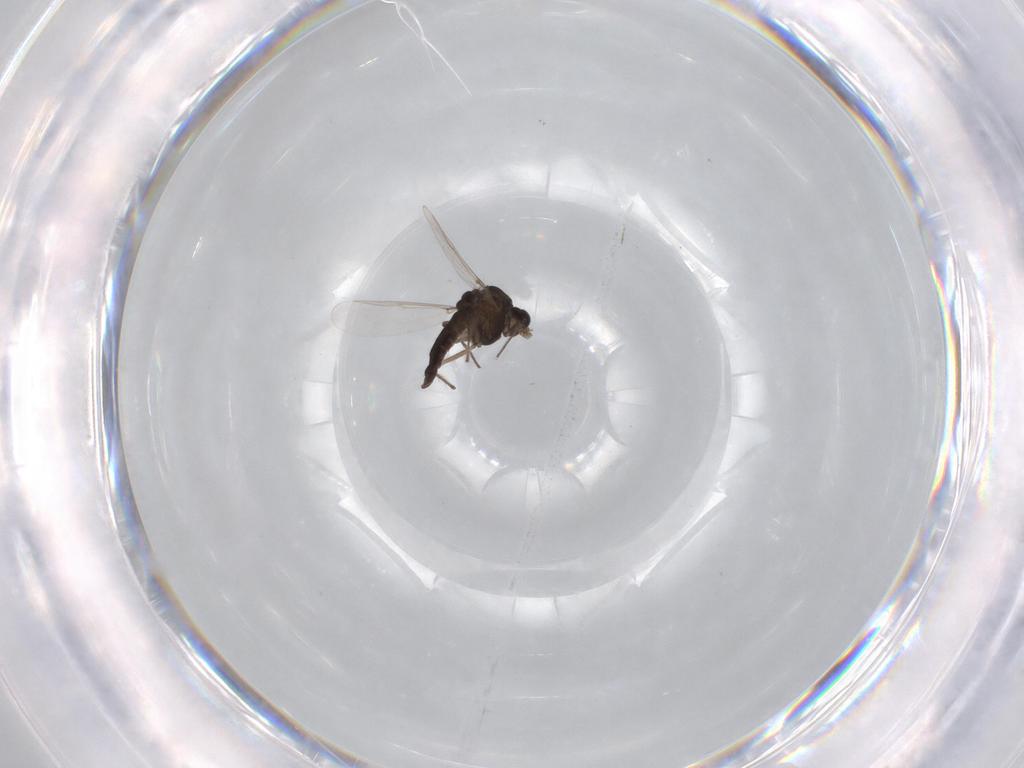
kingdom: Animalia
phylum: Arthropoda
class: Insecta
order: Diptera
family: Chironomidae
